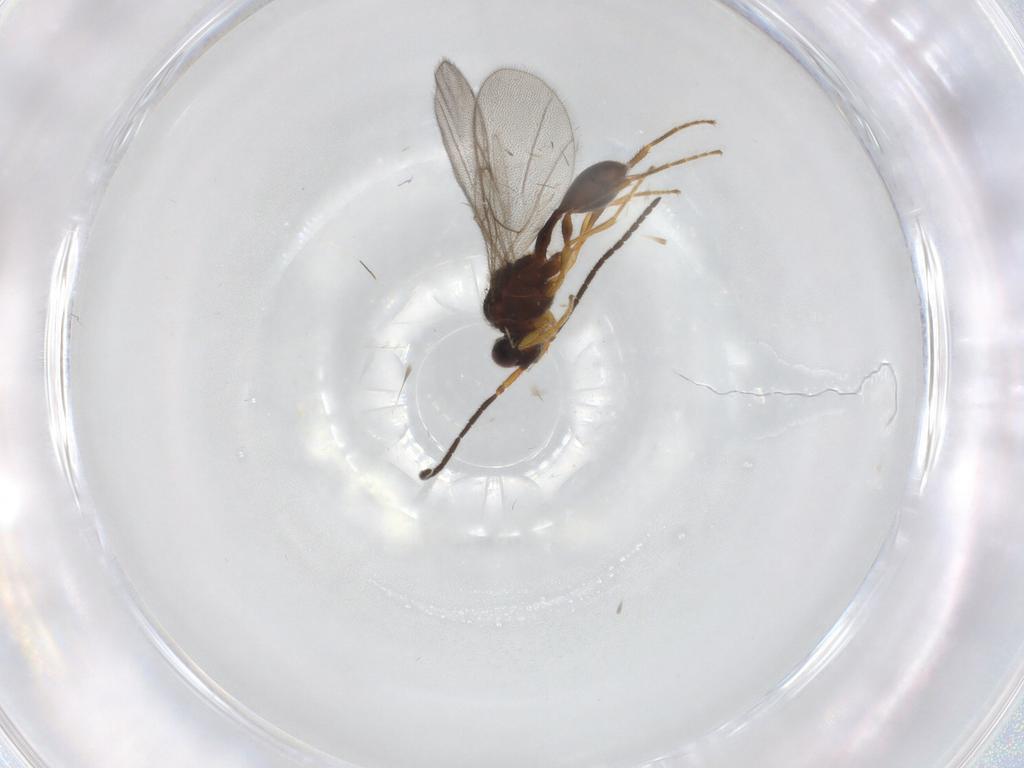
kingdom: Animalia
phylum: Arthropoda
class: Insecta
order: Hymenoptera
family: Diapriidae
